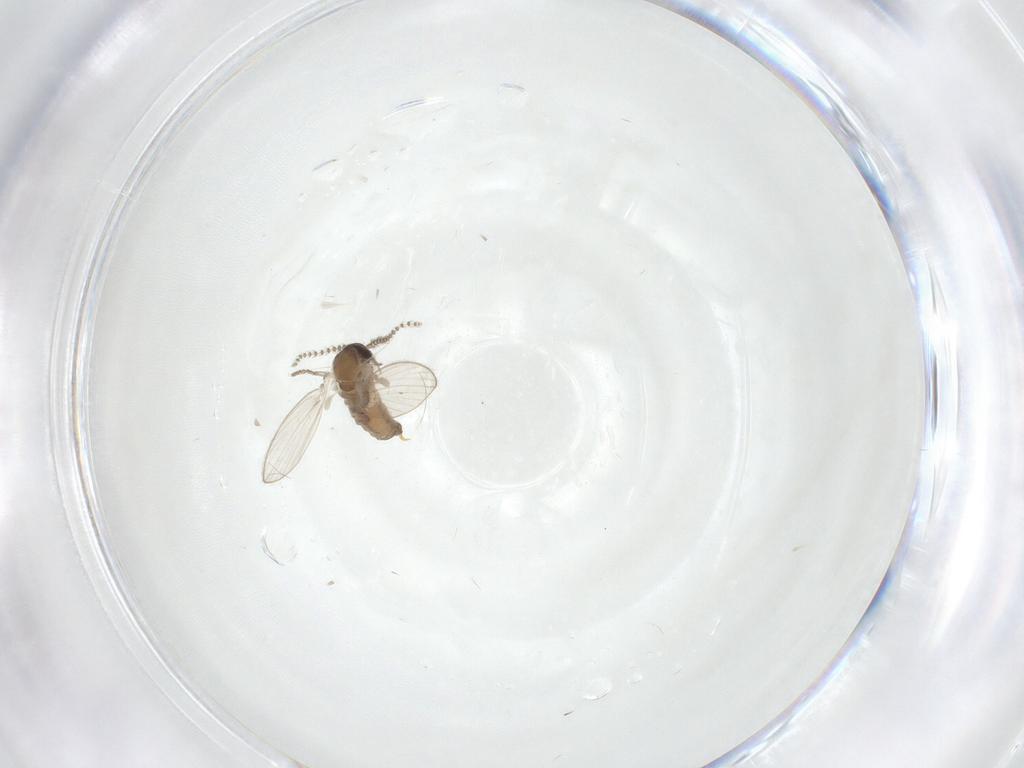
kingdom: Animalia
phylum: Arthropoda
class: Insecta
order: Diptera
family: Psychodidae
